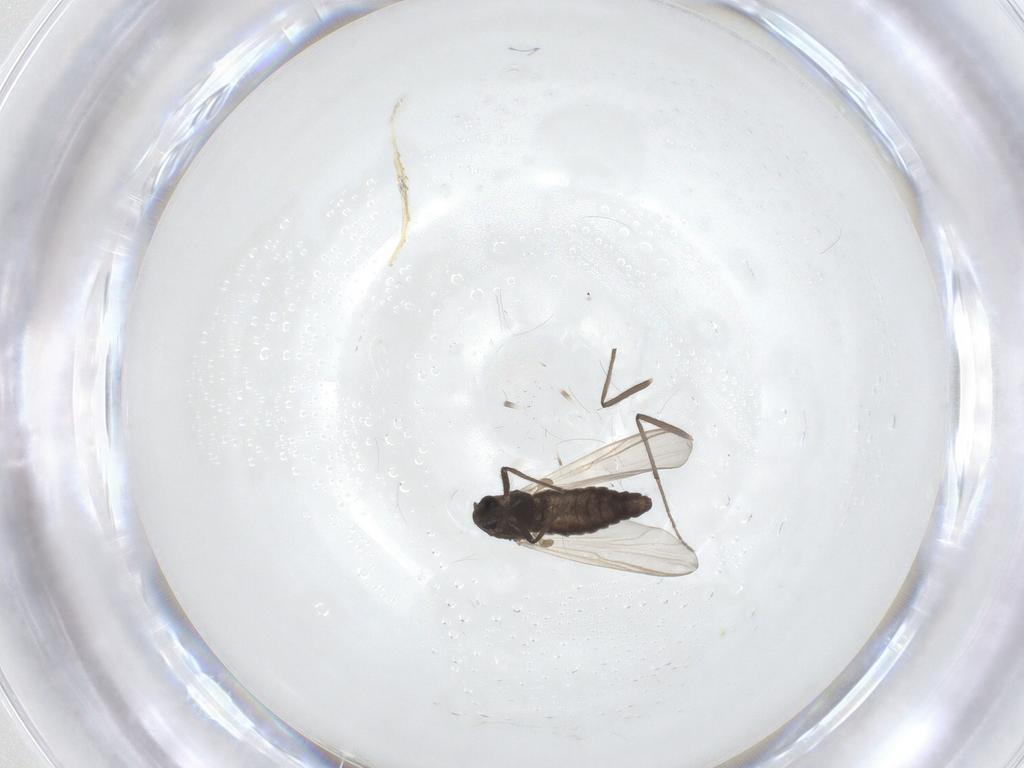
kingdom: Animalia
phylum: Arthropoda
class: Insecta
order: Diptera
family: Chironomidae
